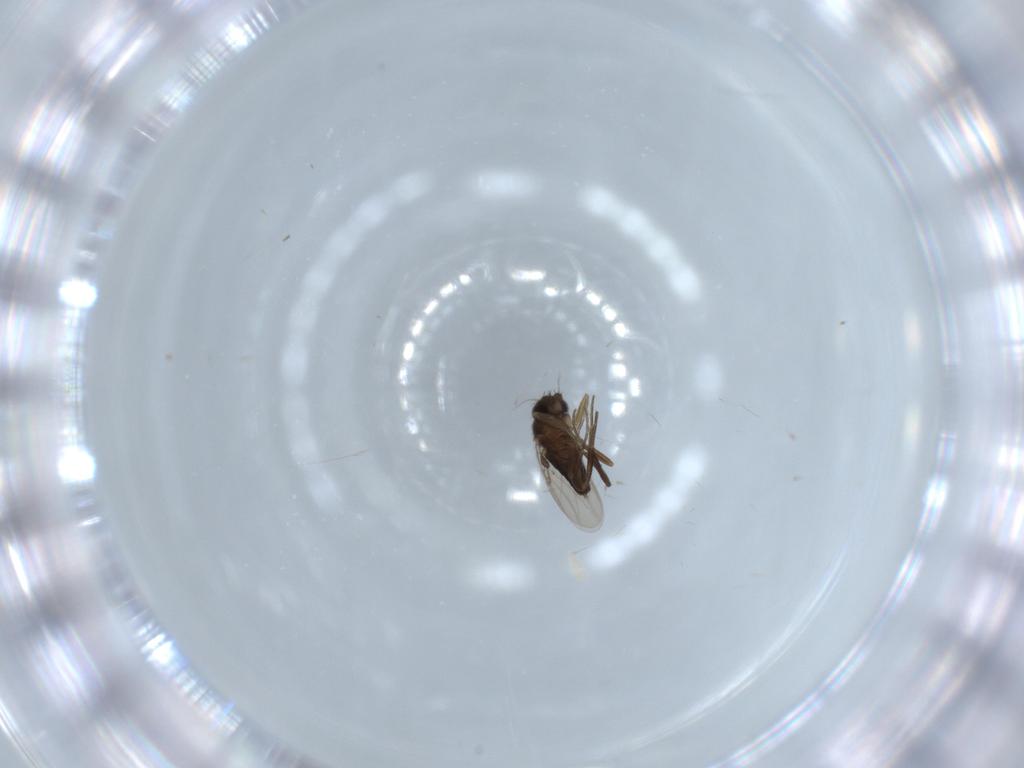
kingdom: Animalia
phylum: Arthropoda
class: Insecta
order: Diptera
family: Phoridae
